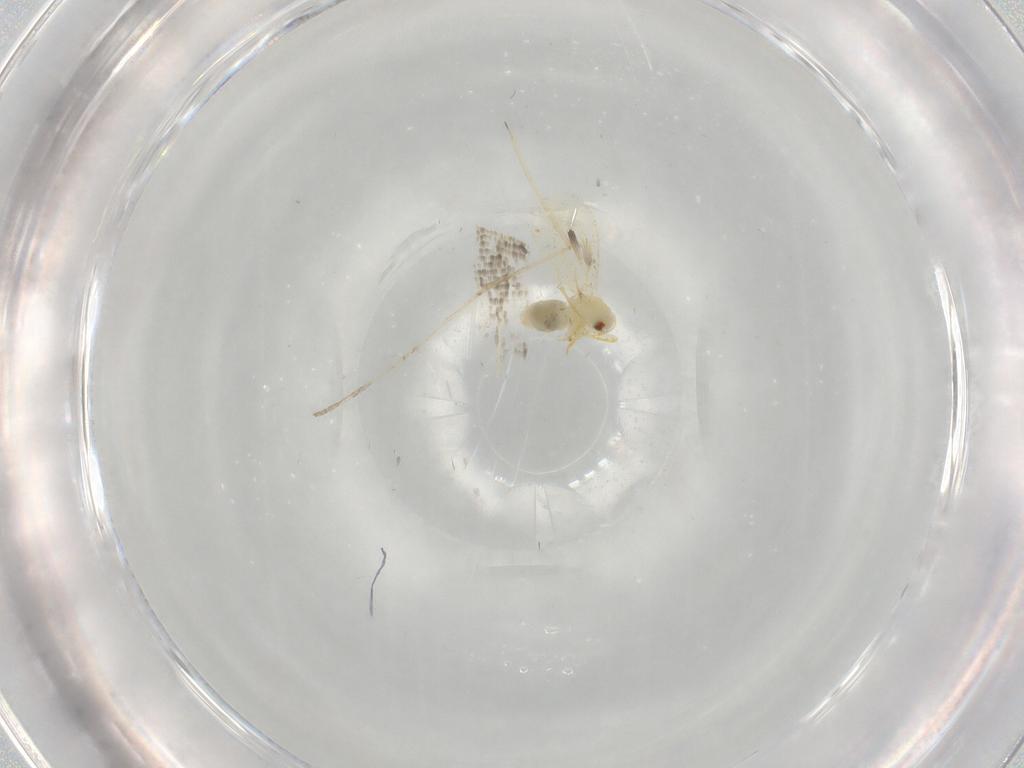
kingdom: Animalia
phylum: Arthropoda
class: Insecta
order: Hemiptera
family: Aleyrodidae
